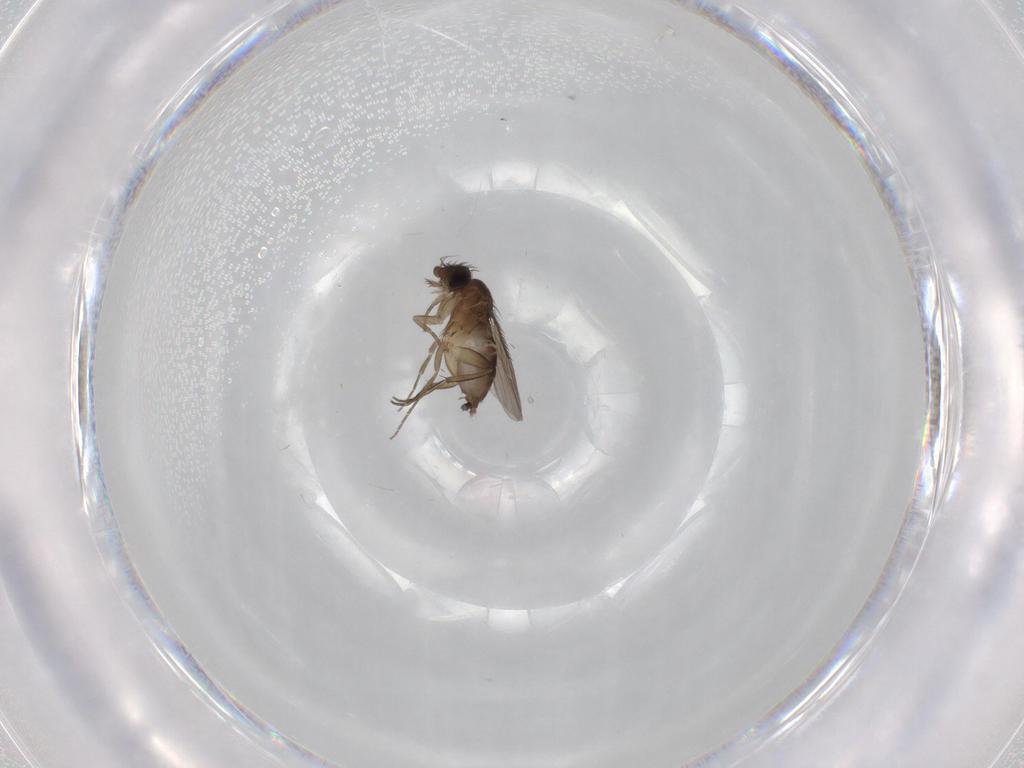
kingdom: Animalia
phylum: Arthropoda
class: Insecta
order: Diptera
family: Phoridae
